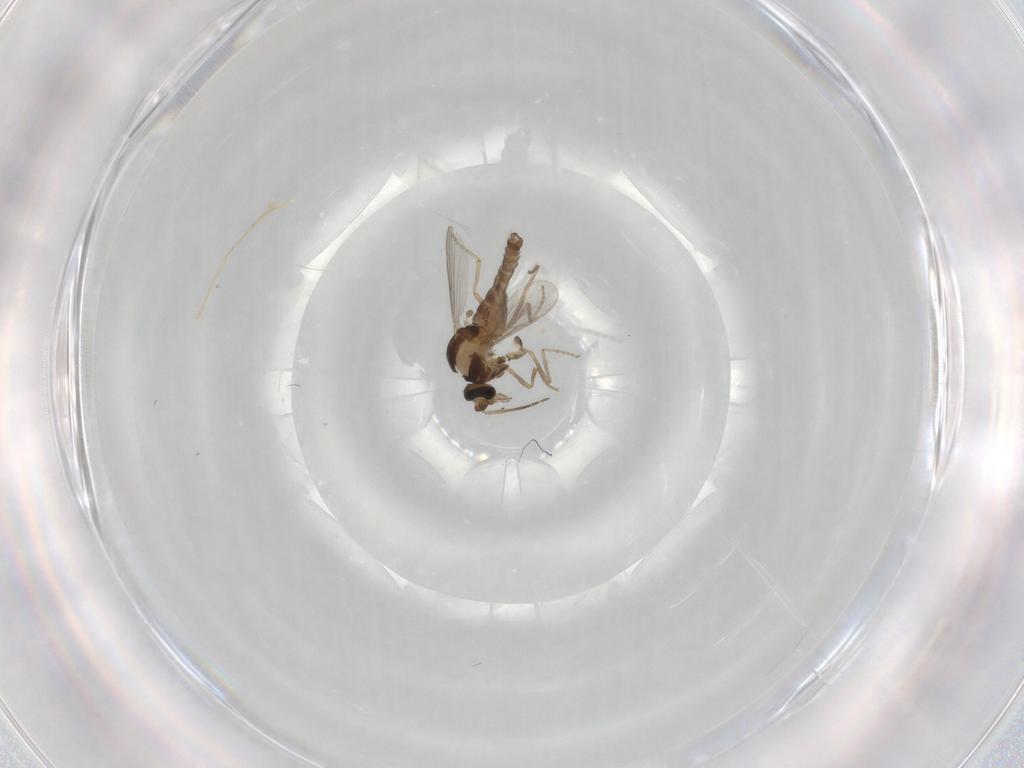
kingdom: Animalia
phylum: Arthropoda
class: Insecta
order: Diptera
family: Ceratopogonidae
